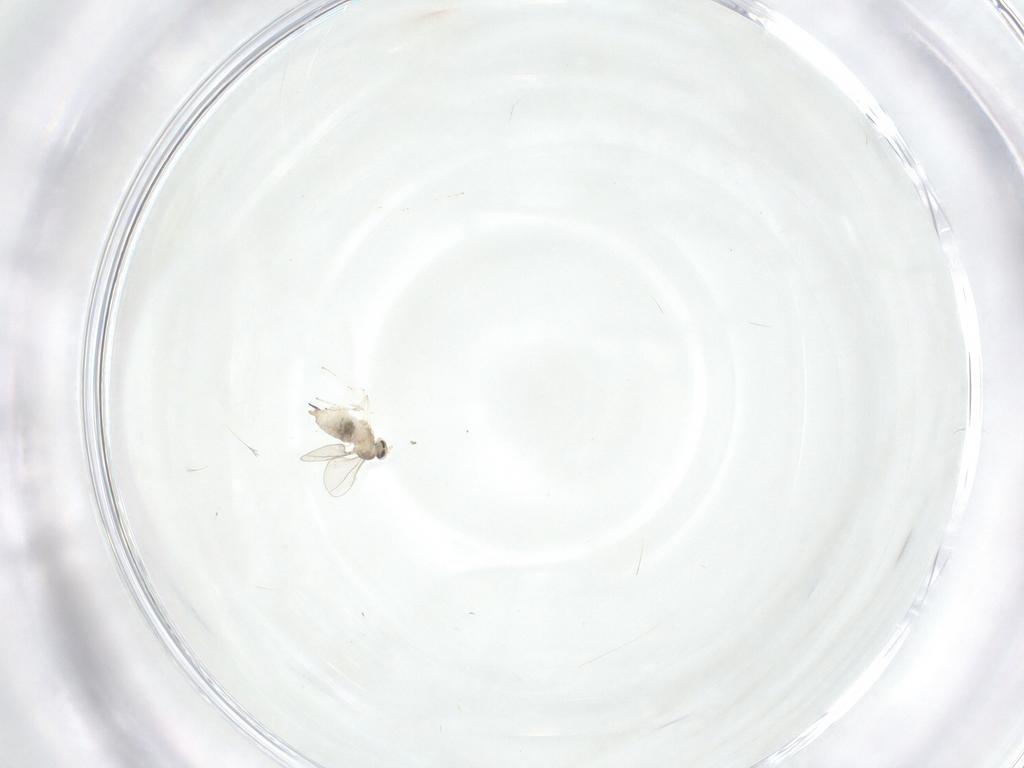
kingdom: Animalia
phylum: Arthropoda
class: Insecta
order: Diptera
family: Cecidomyiidae
